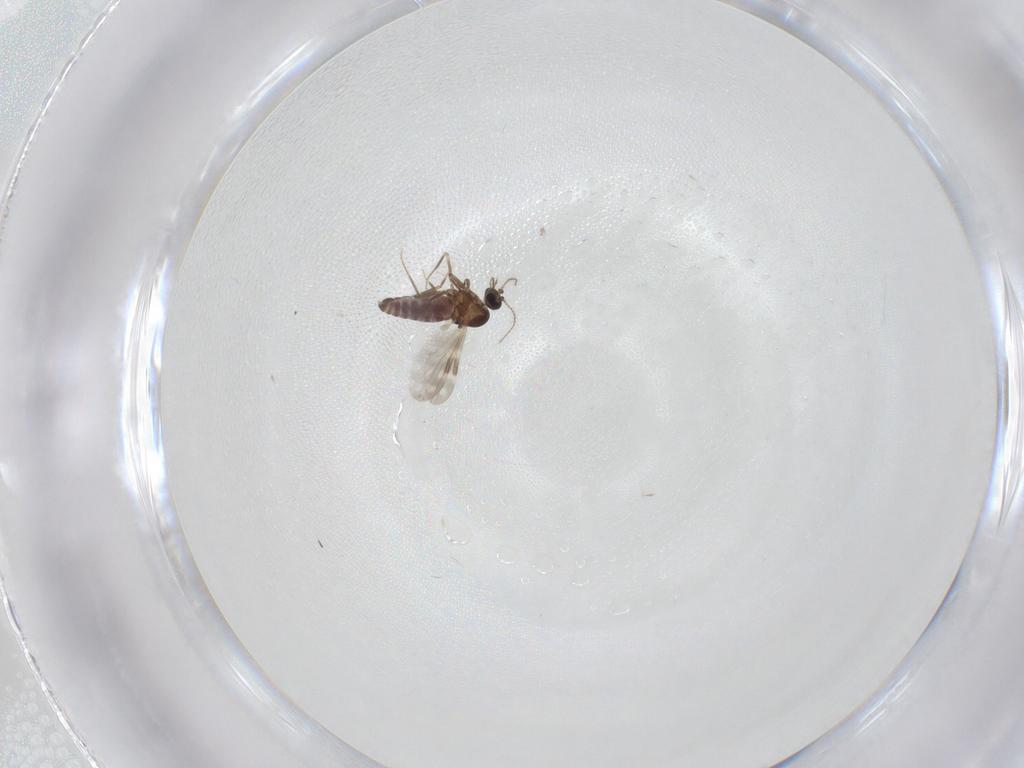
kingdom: Animalia
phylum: Arthropoda
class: Insecta
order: Diptera
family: Ceratopogonidae
